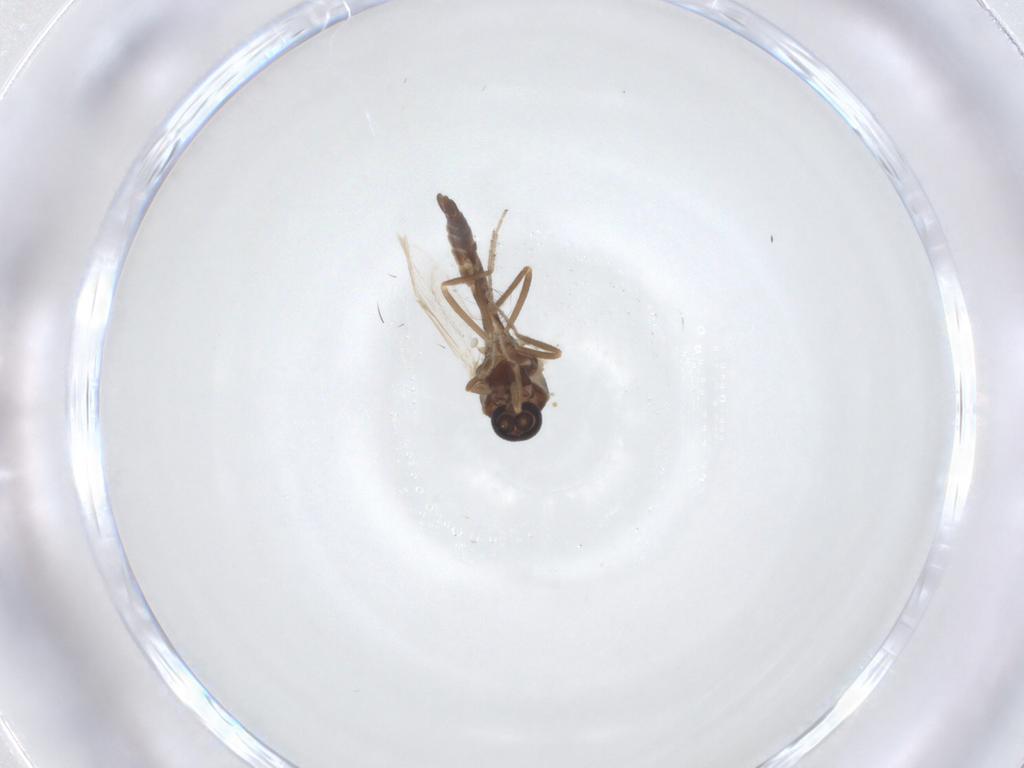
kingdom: Animalia
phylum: Arthropoda
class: Insecta
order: Diptera
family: Ceratopogonidae
